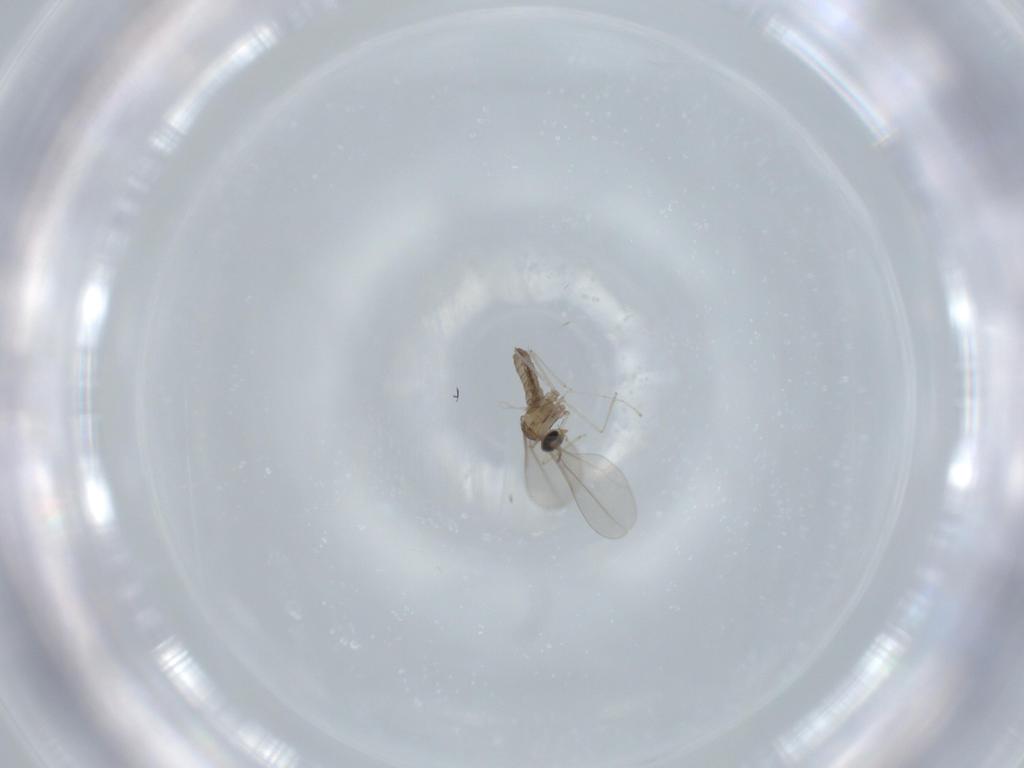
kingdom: Animalia
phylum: Arthropoda
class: Insecta
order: Diptera
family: Cecidomyiidae
